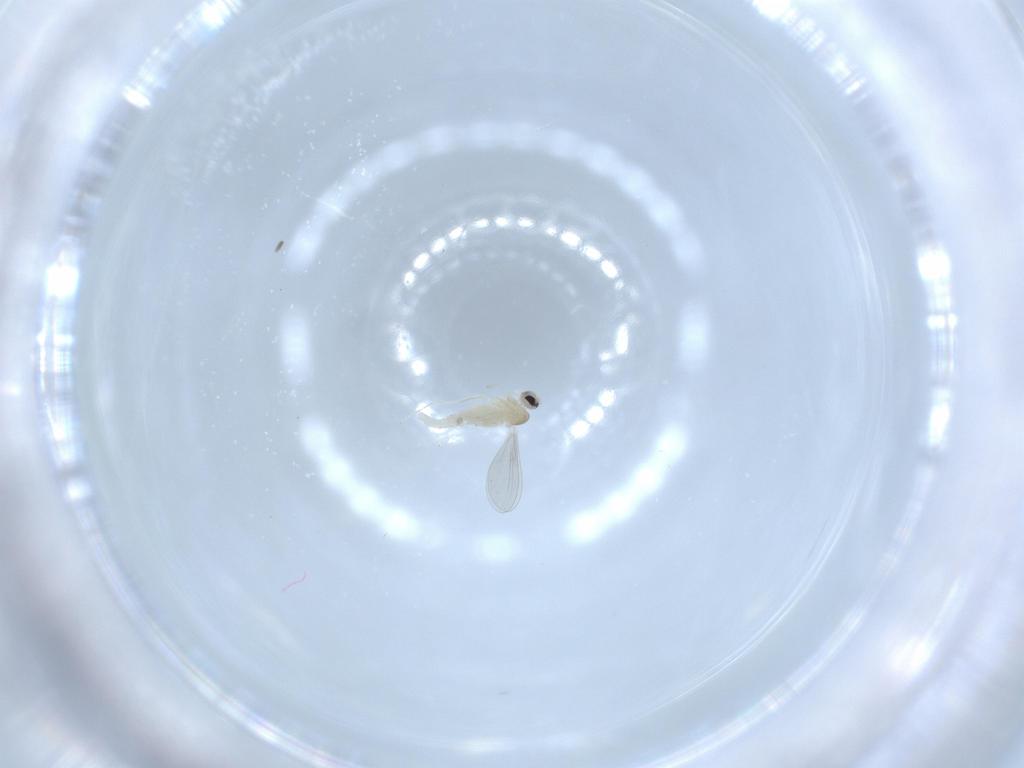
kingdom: Animalia
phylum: Arthropoda
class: Insecta
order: Diptera
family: Cecidomyiidae
